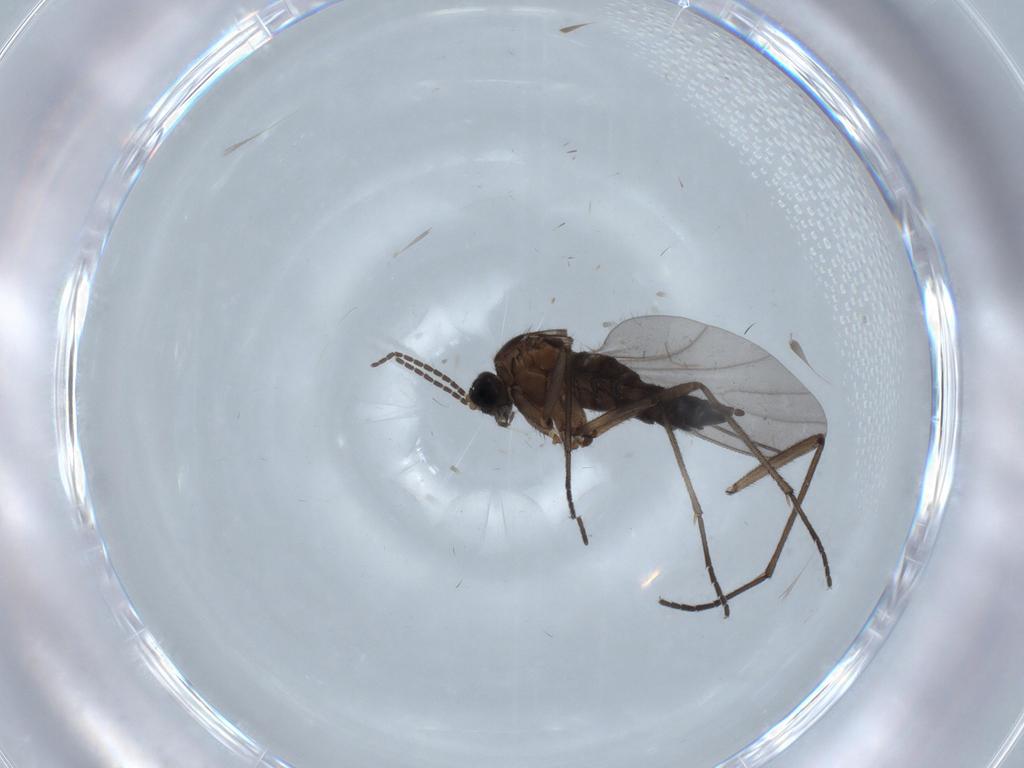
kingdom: Animalia
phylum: Arthropoda
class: Insecta
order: Diptera
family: Sciaridae
